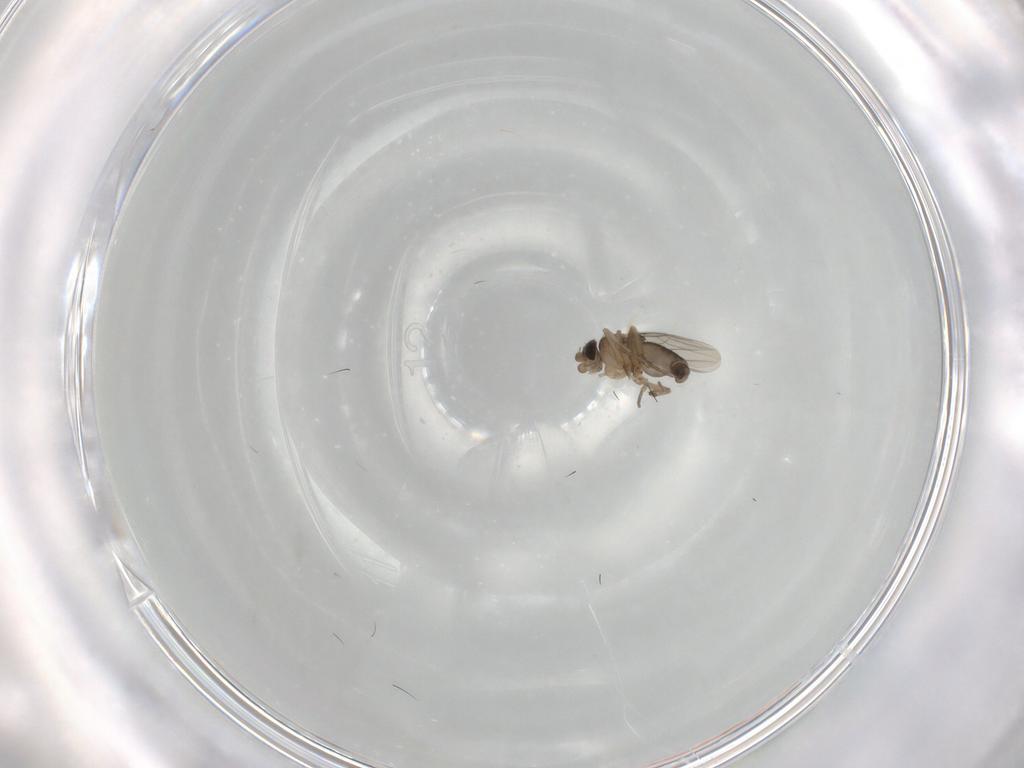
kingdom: Animalia
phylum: Arthropoda
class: Insecta
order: Diptera
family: Phoridae
